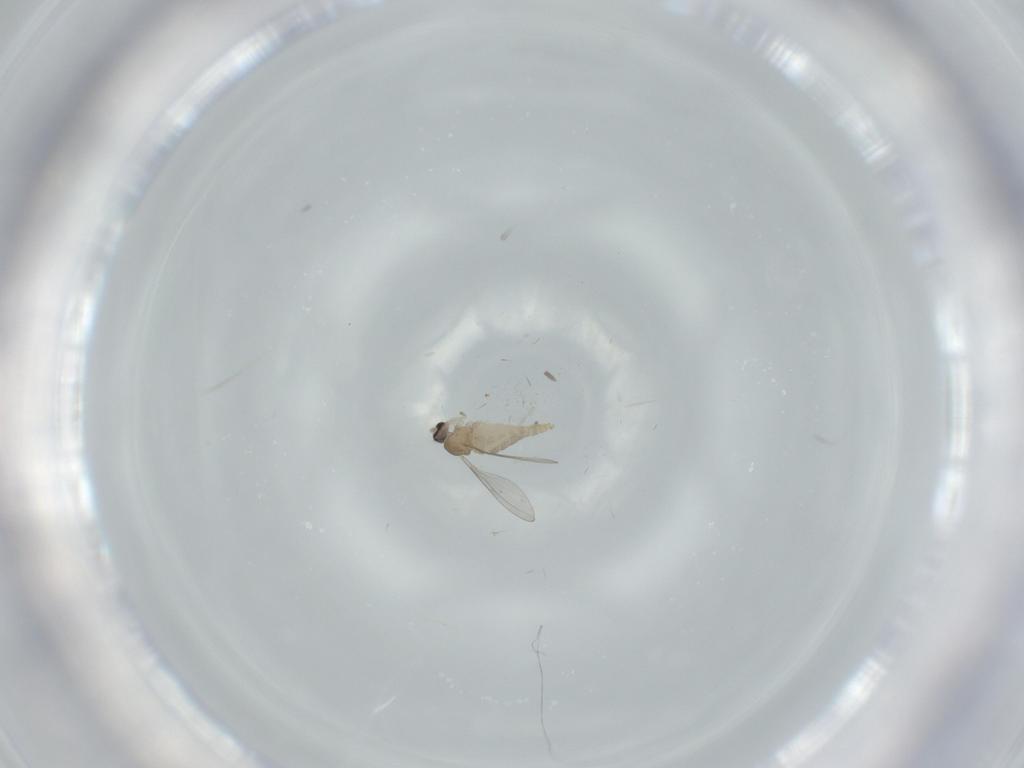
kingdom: Animalia
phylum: Arthropoda
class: Insecta
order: Diptera
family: Cecidomyiidae
